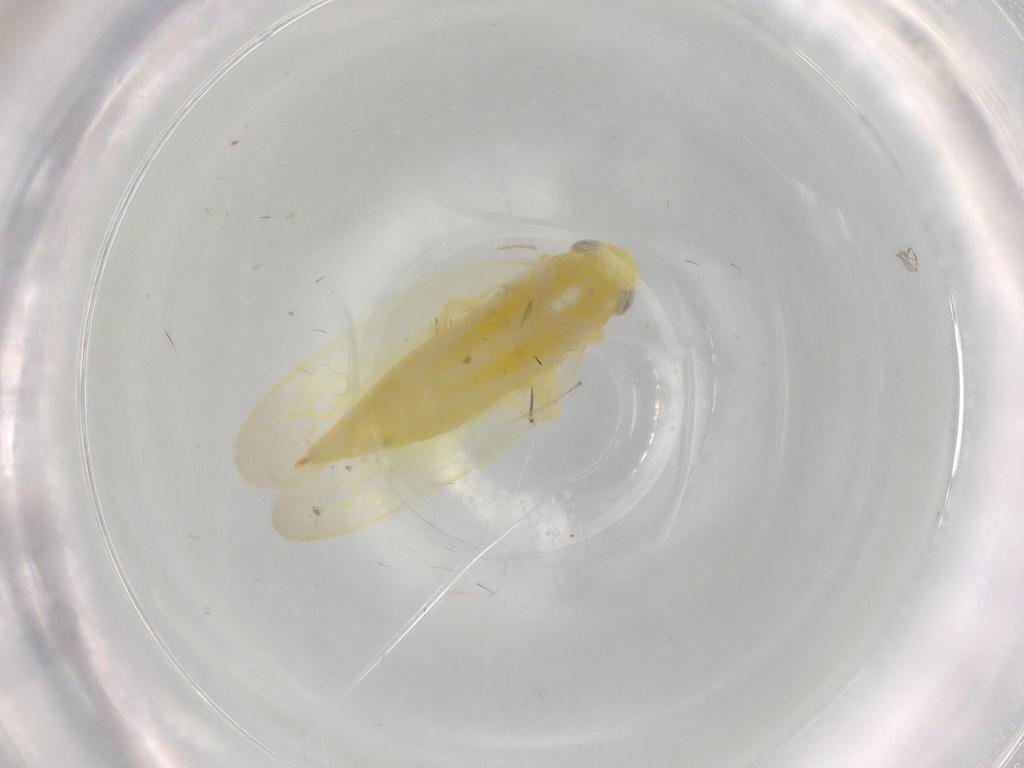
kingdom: Animalia
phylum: Arthropoda
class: Insecta
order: Hemiptera
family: Cicadellidae
